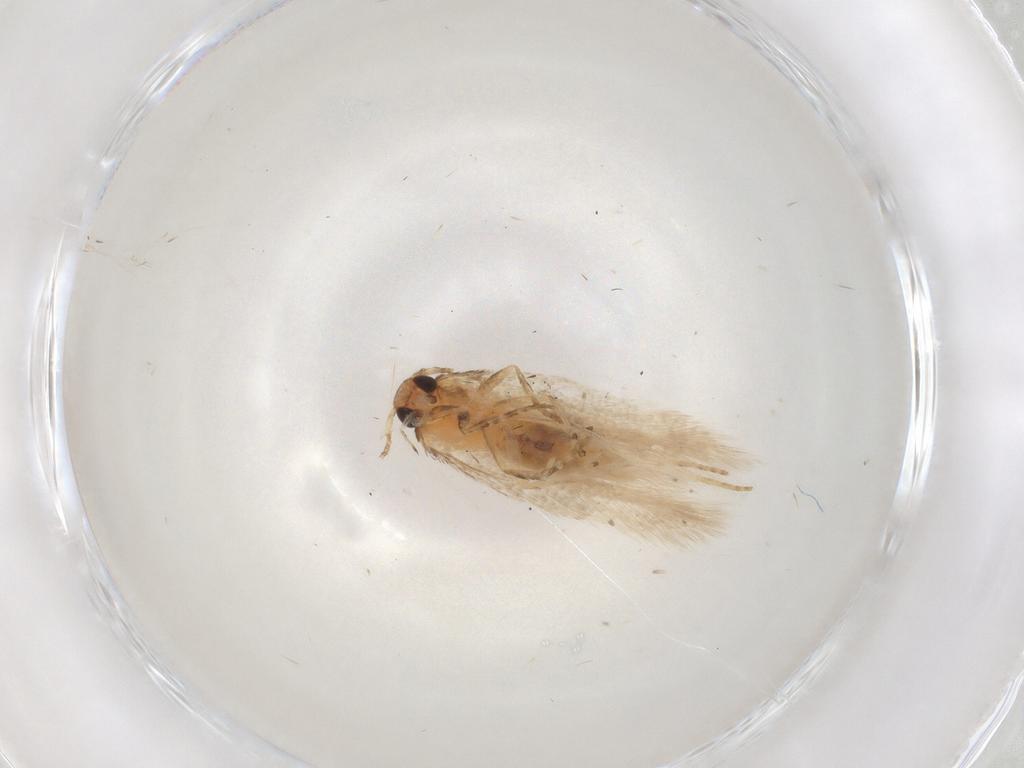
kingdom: Animalia
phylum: Arthropoda
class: Insecta
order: Lepidoptera
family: Gelechiidae
